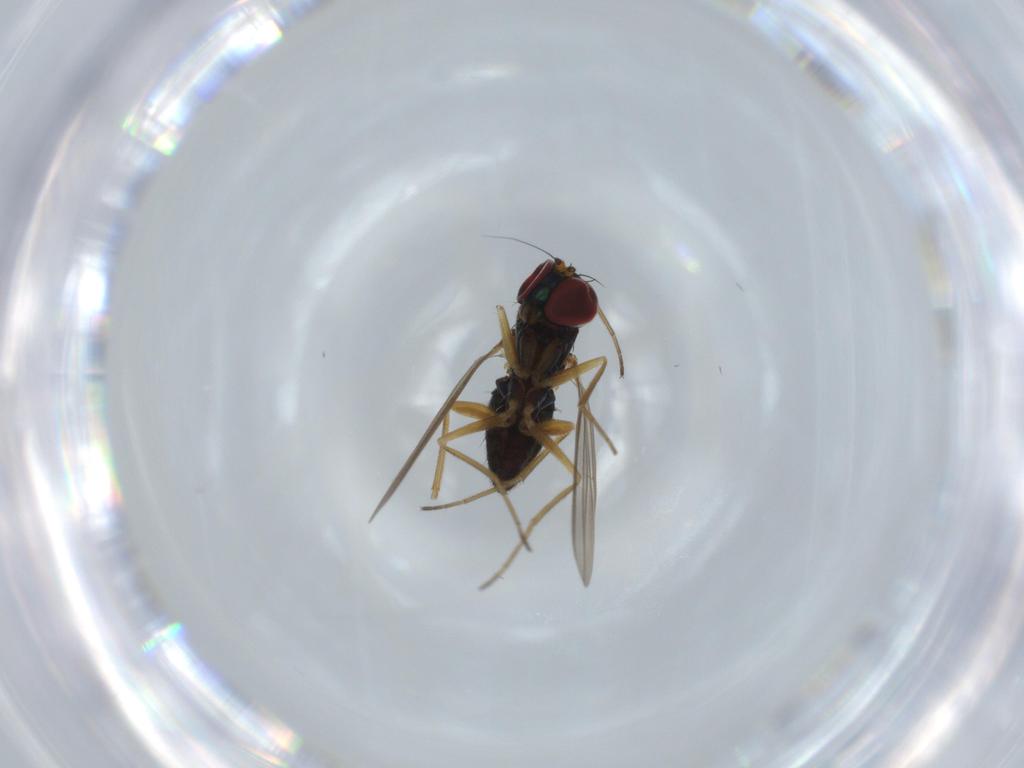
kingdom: Animalia
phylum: Arthropoda
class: Insecta
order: Diptera
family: Dolichopodidae
